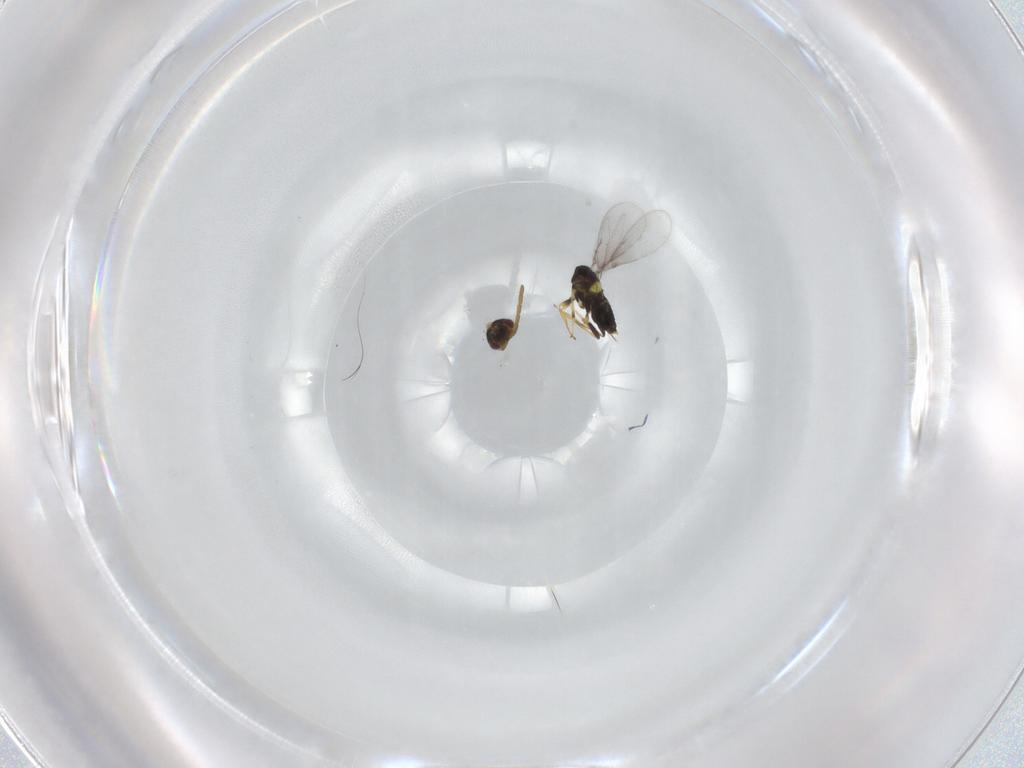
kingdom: Animalia
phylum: Arthropoda
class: Insecta
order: Hymenoptera
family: Aphelinidae
